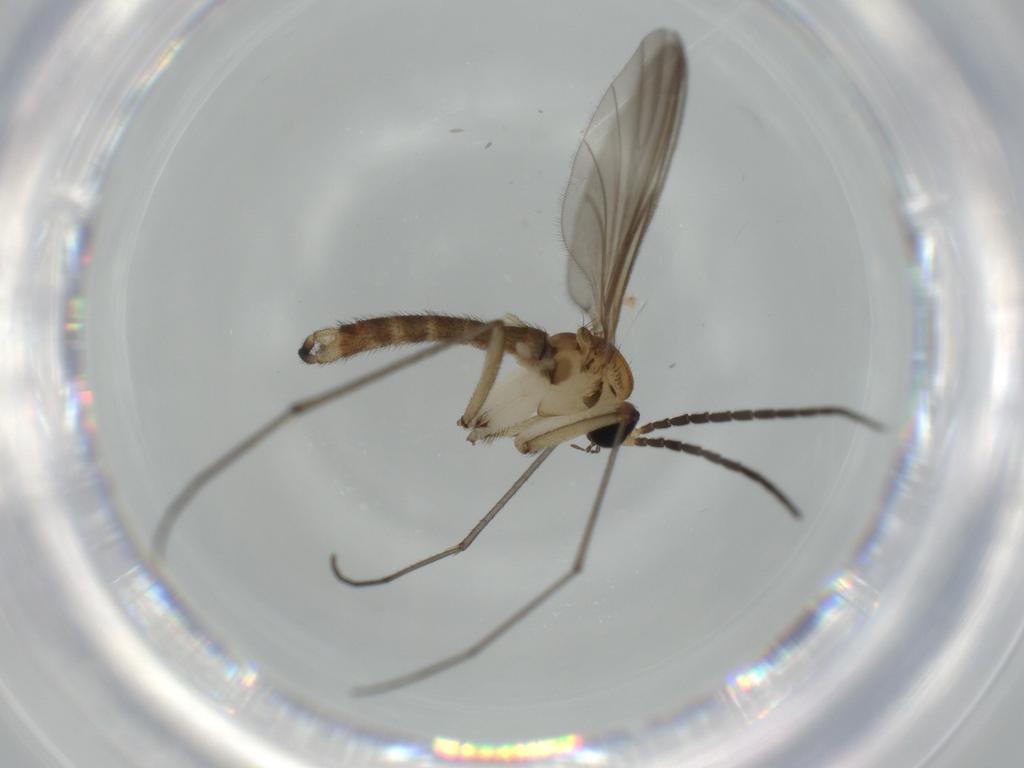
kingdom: Animalia
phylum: Arthropoda
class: Insecta
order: Diptera
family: Sciaridae
